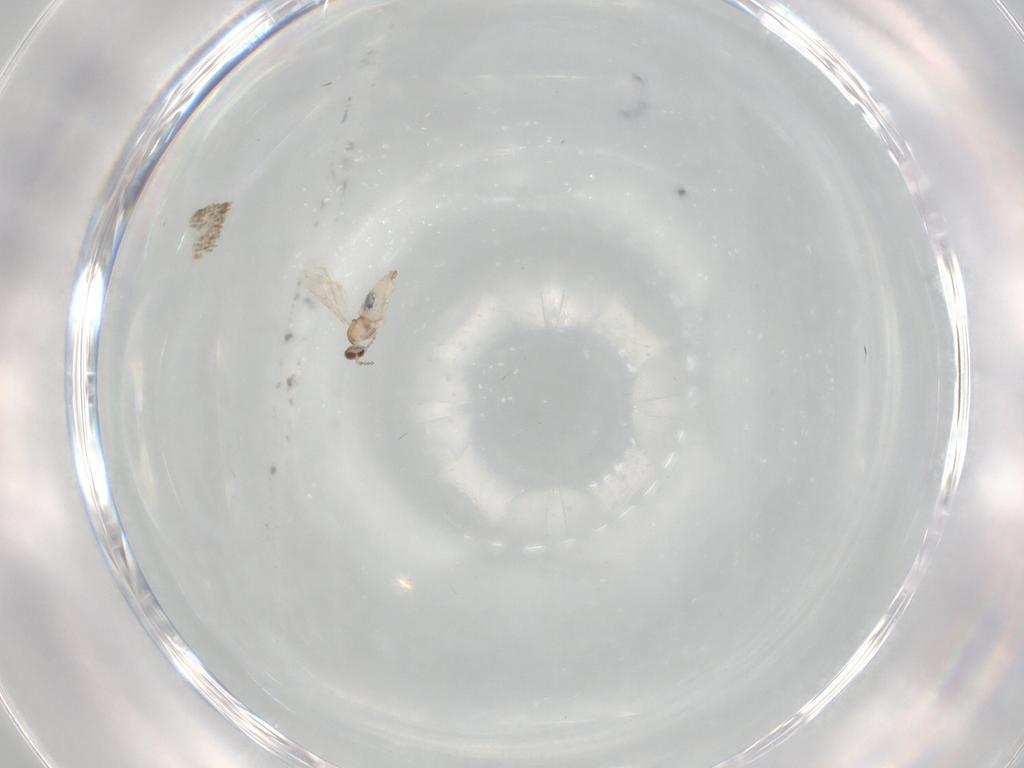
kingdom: Animalia
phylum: Arthropoda
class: Insecta
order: Diptera
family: Cecidomyiidae
